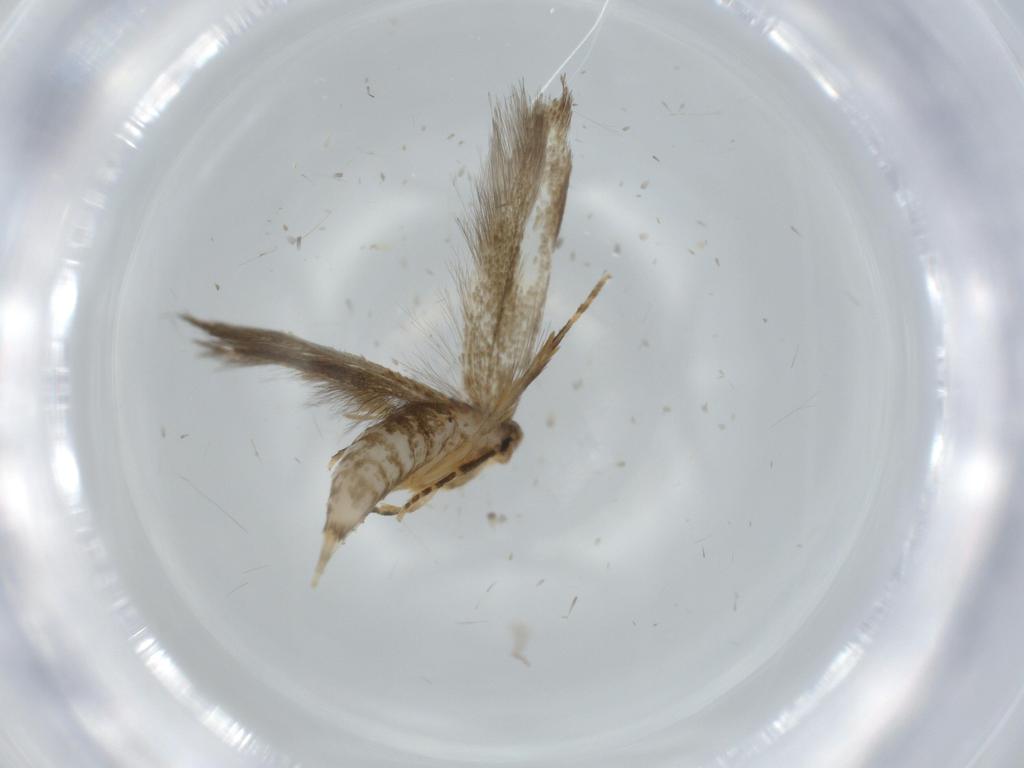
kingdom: Animalia
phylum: Arthropoda
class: Insecta
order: Lepidoptera
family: Tineidae
